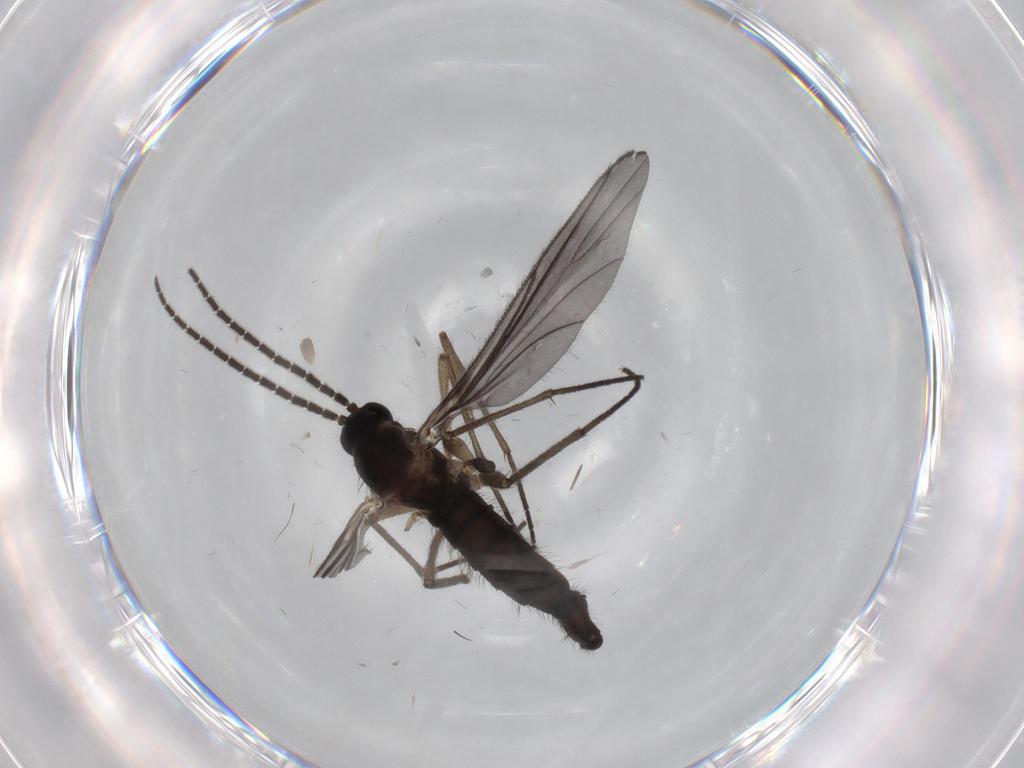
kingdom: Animalia
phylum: Arthropoda
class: Insecta
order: Diptera
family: Sciaridae
